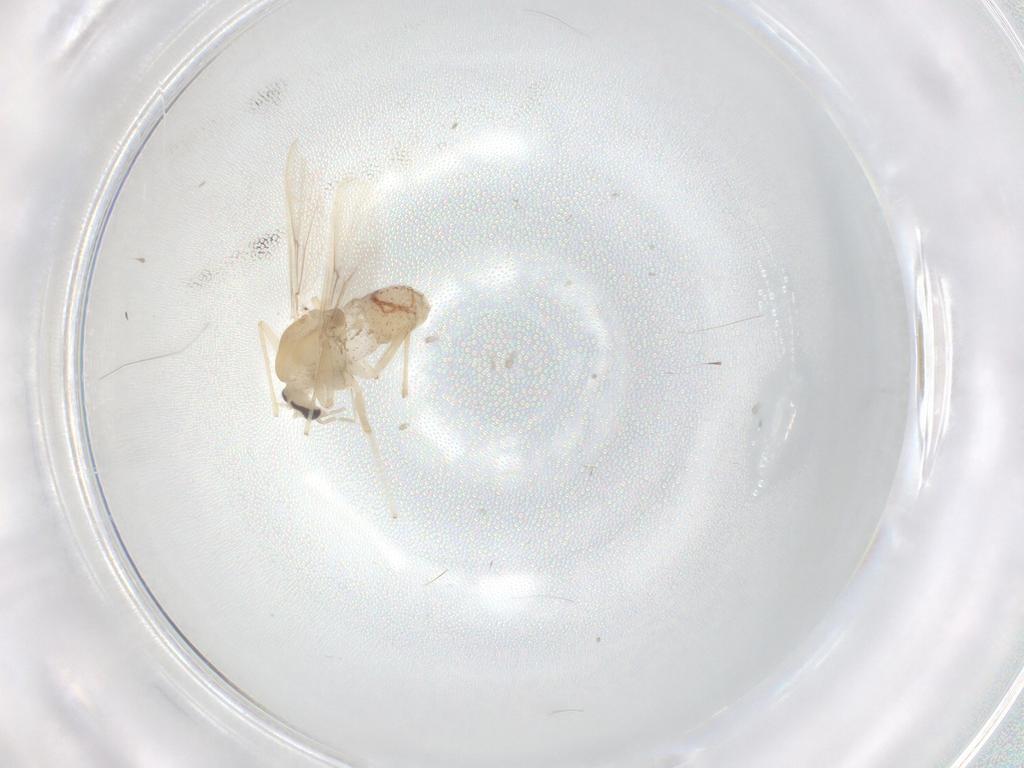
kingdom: Animalia
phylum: Arthropoda
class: Insecta
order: Diptera
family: Chironomidae
